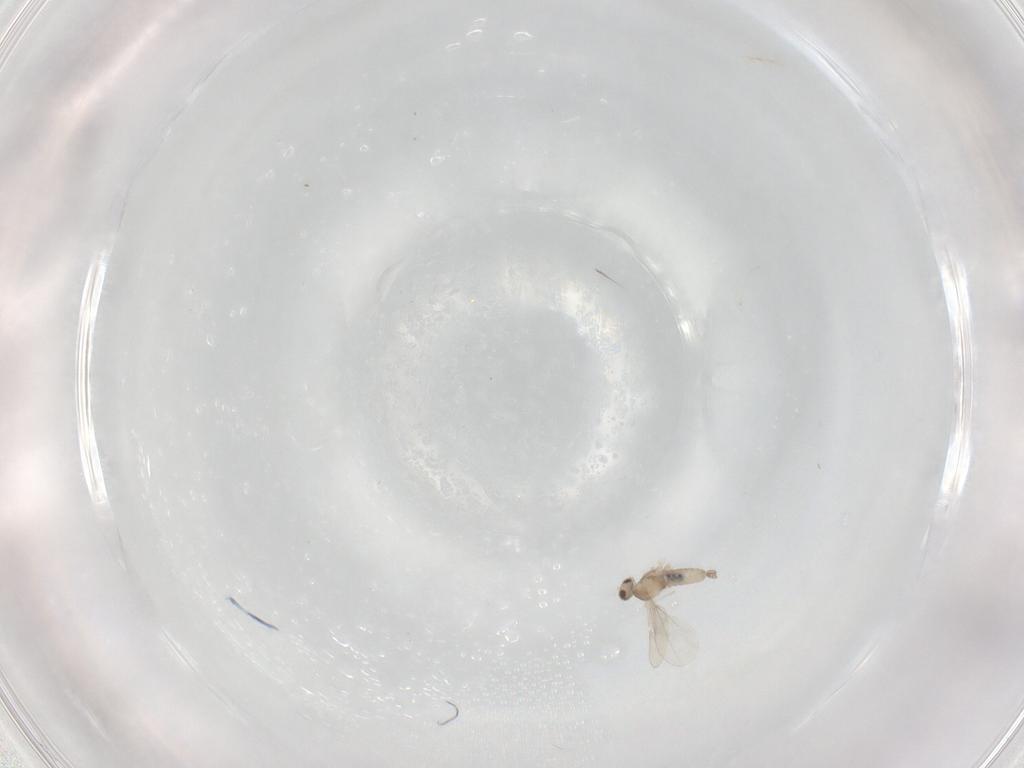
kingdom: Animalia
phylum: Arthropoda
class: Insecta
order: Diptera
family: Cecidomyiidae
